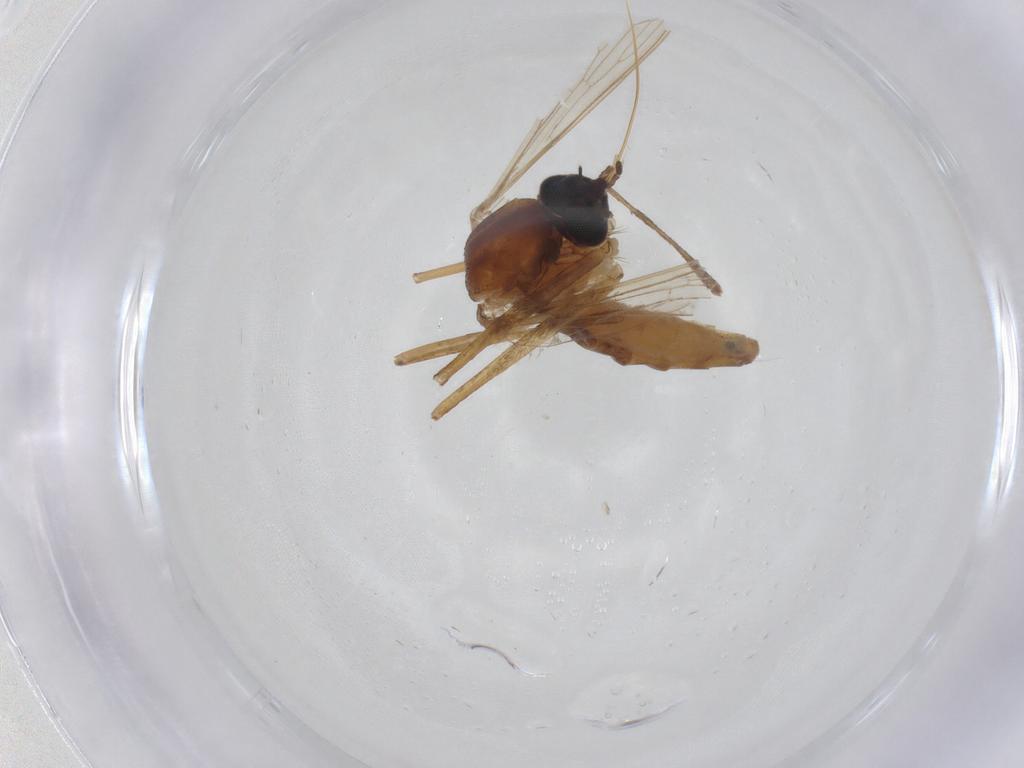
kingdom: Animalia
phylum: Arthropoda
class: Insecta
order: Diptera
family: Culicidae
